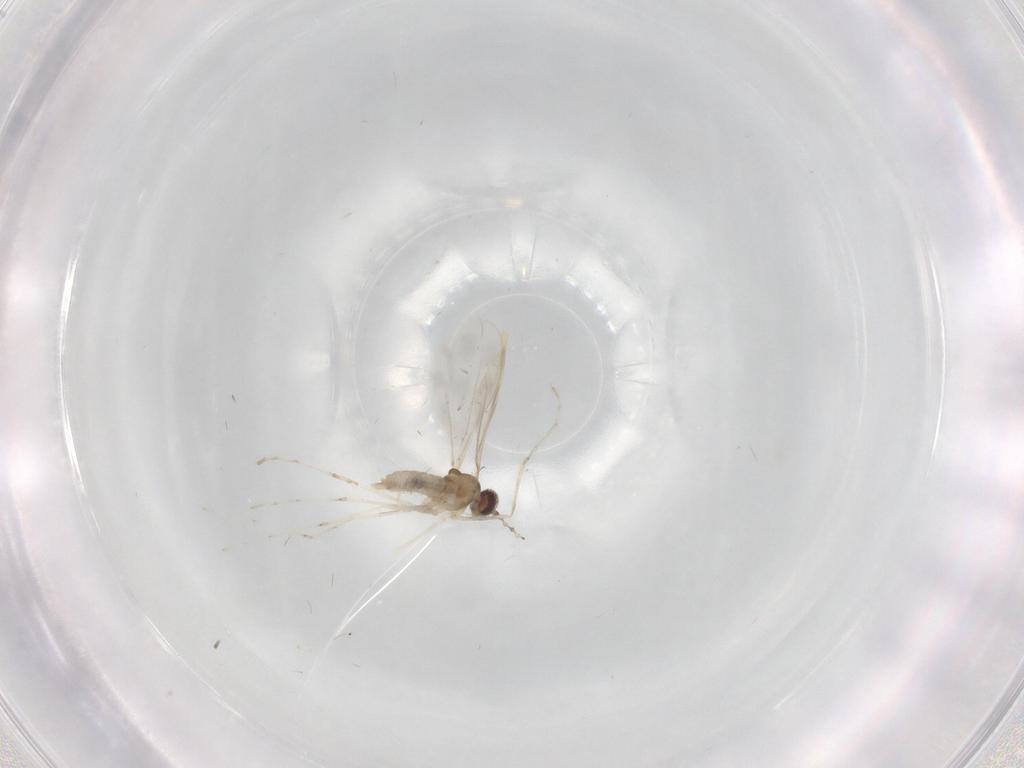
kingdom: Animalia
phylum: Arthropoda
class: Insecta
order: Diptera
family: Cecidomyiidae
